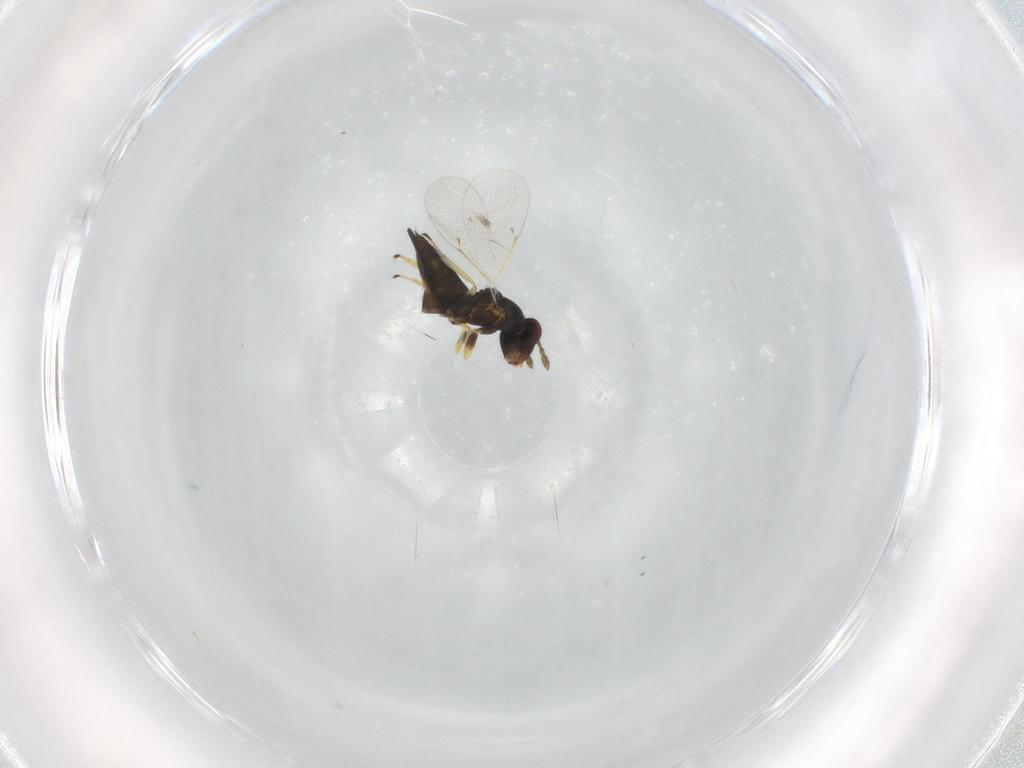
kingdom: Animalia
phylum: Arthropoda
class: Insecta
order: Hymenoptera
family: Eulophidae
